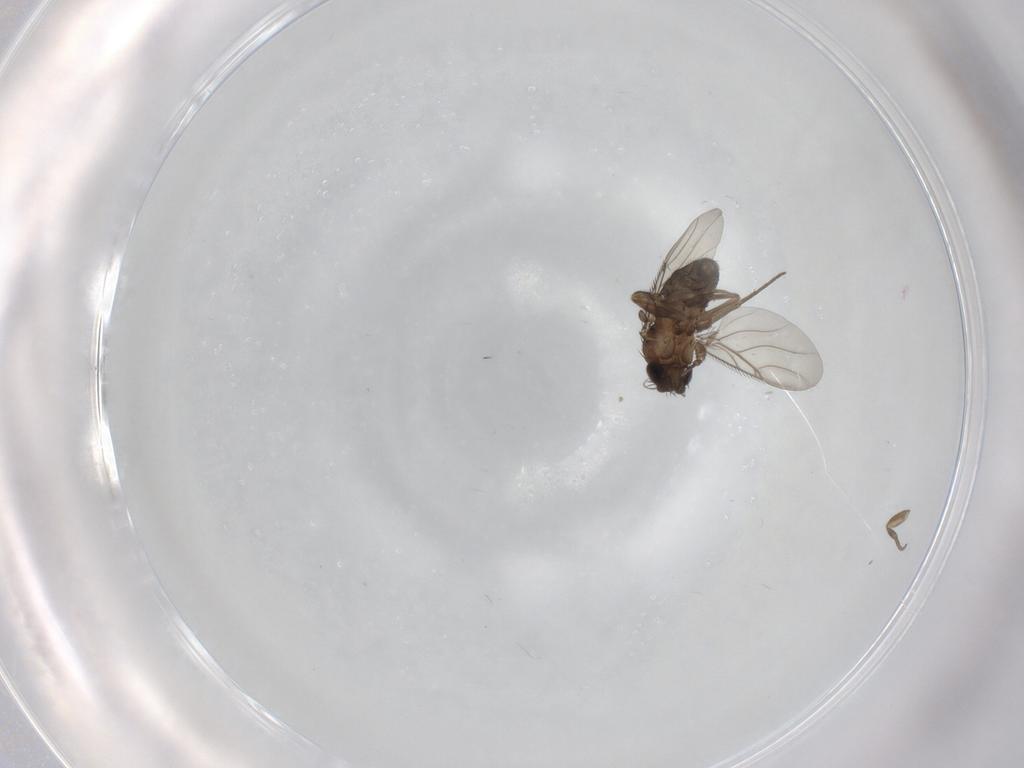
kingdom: Animalia
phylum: Arthropoda
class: Insecta
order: Diptera
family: Phoridae
